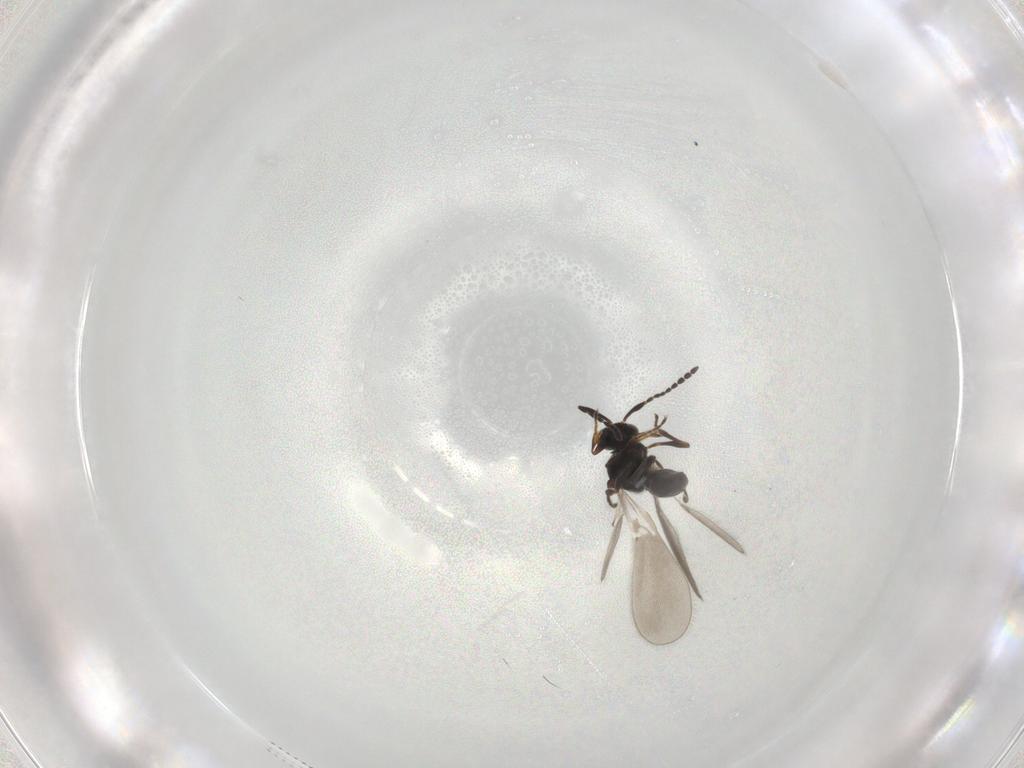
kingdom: Animalia
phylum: Arthropoda
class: Insecta
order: Hymenoptera
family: Platygastridae
